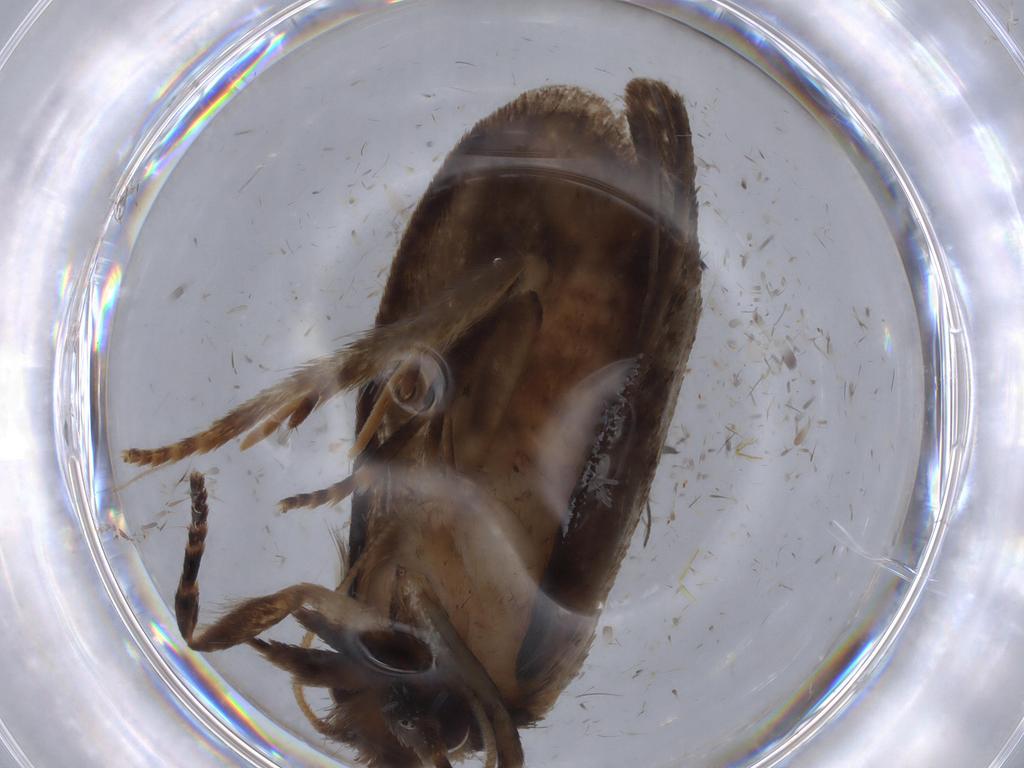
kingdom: Animalia
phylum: Arthropoda
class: Insecta
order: Lepidoptera
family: Tineidae
